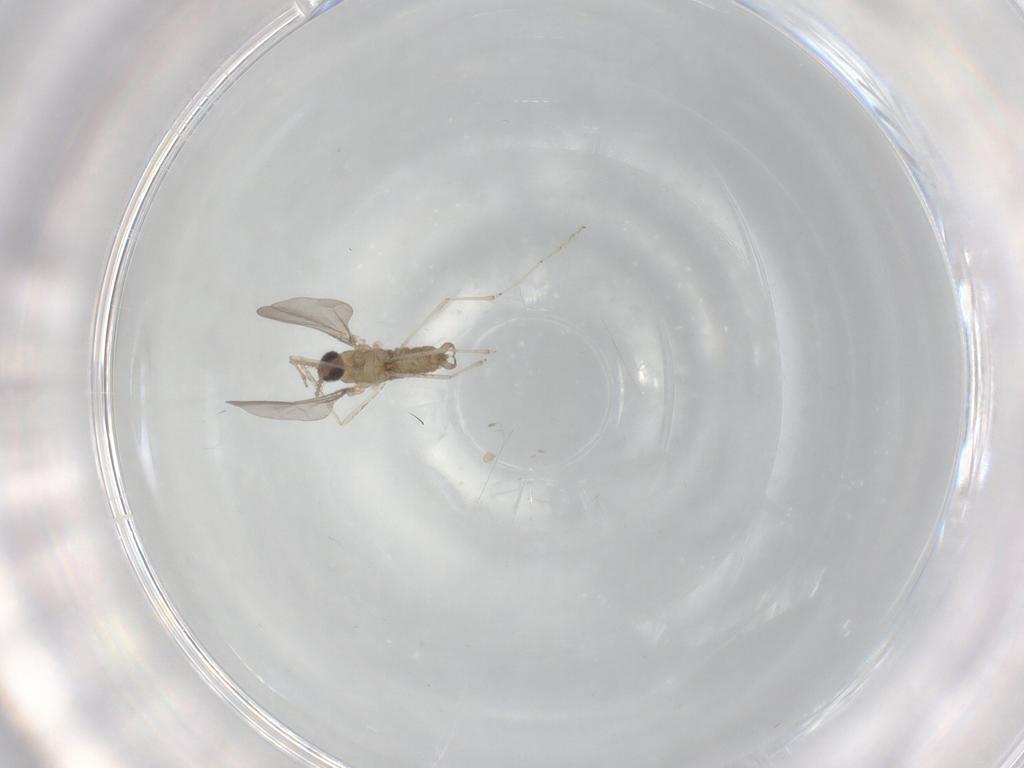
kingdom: Animalia
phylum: Arthropoda
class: Insecta
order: Diptera
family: Cecidomyiidae
